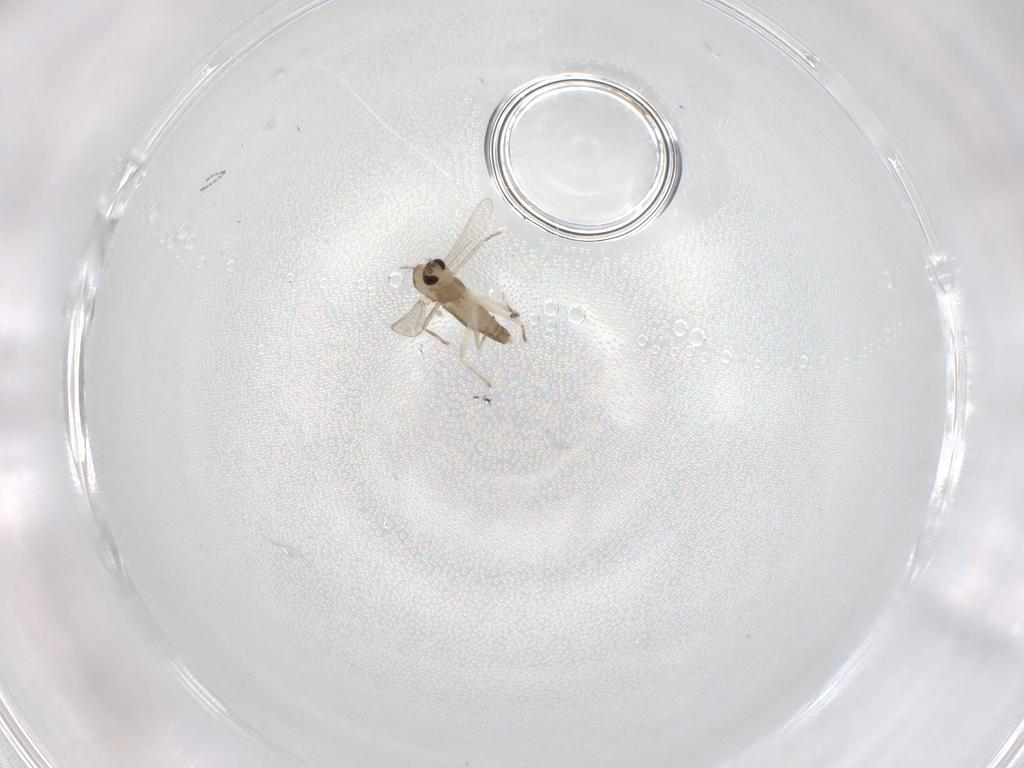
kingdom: Animalia
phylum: Arthropoda
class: Insecta
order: Diptera
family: Chironomidae
